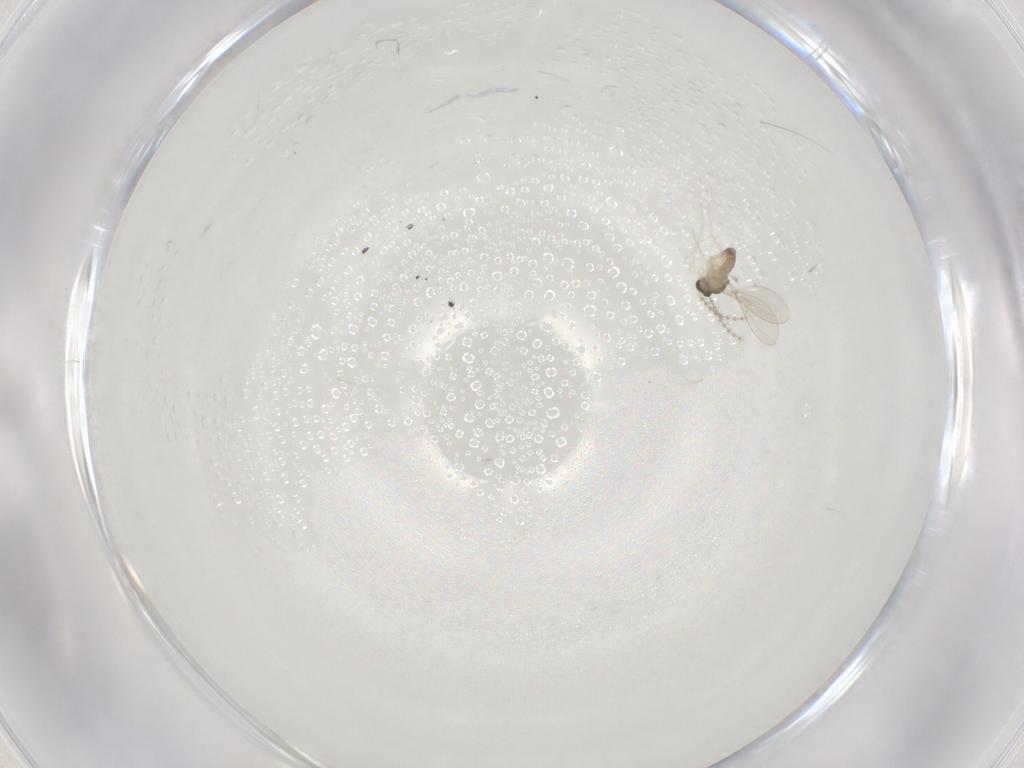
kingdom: Animalia
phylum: Arthropoda
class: Insecta
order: Diptera
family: Cecidomyiidae
